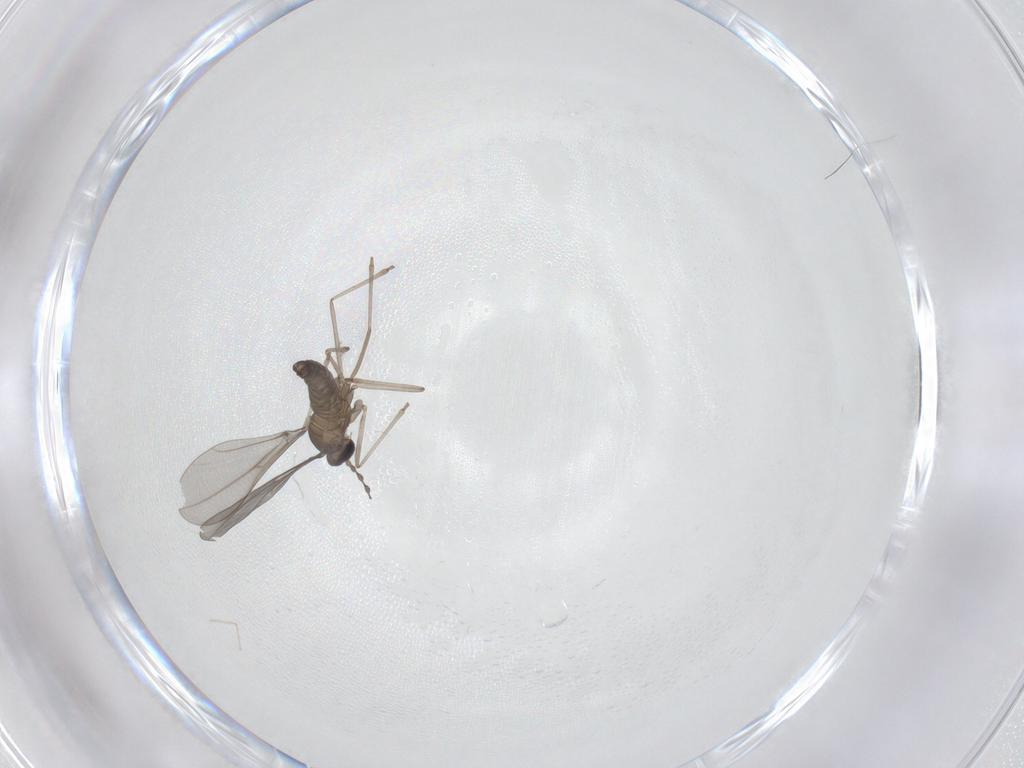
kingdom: Animalia
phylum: Arthropoda
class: Insecta
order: Diptera
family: Cecidomyiidae
